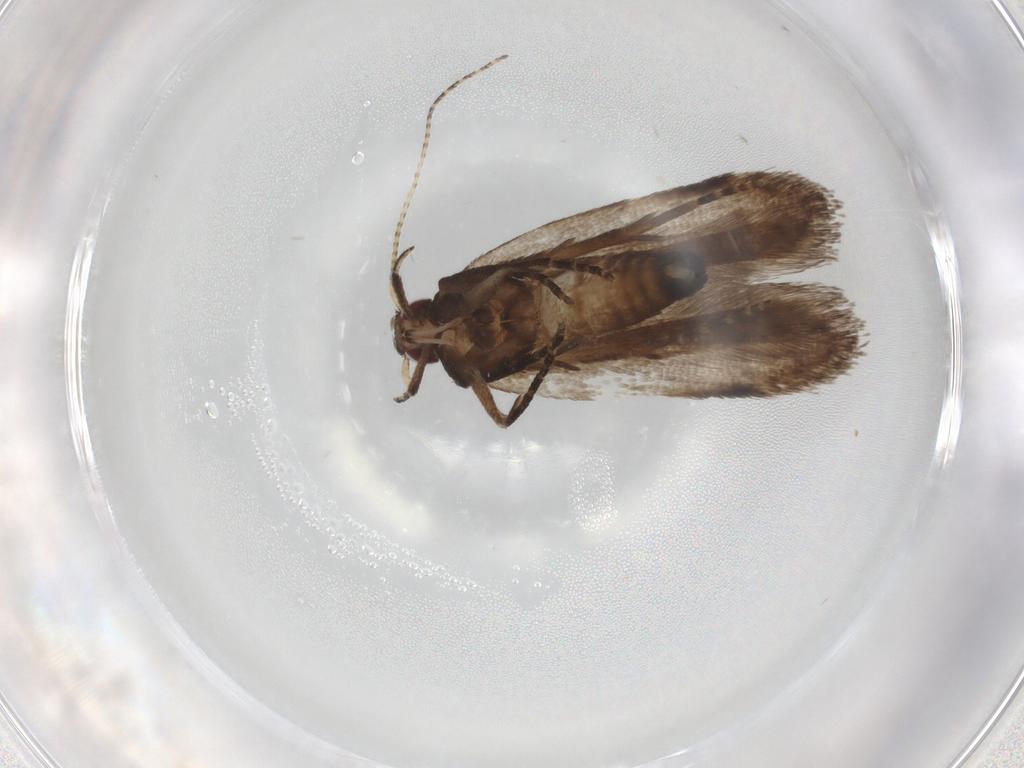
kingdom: Animalia
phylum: Arthropoda
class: Insecta
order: Lepidoptera
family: Gelechiidae
